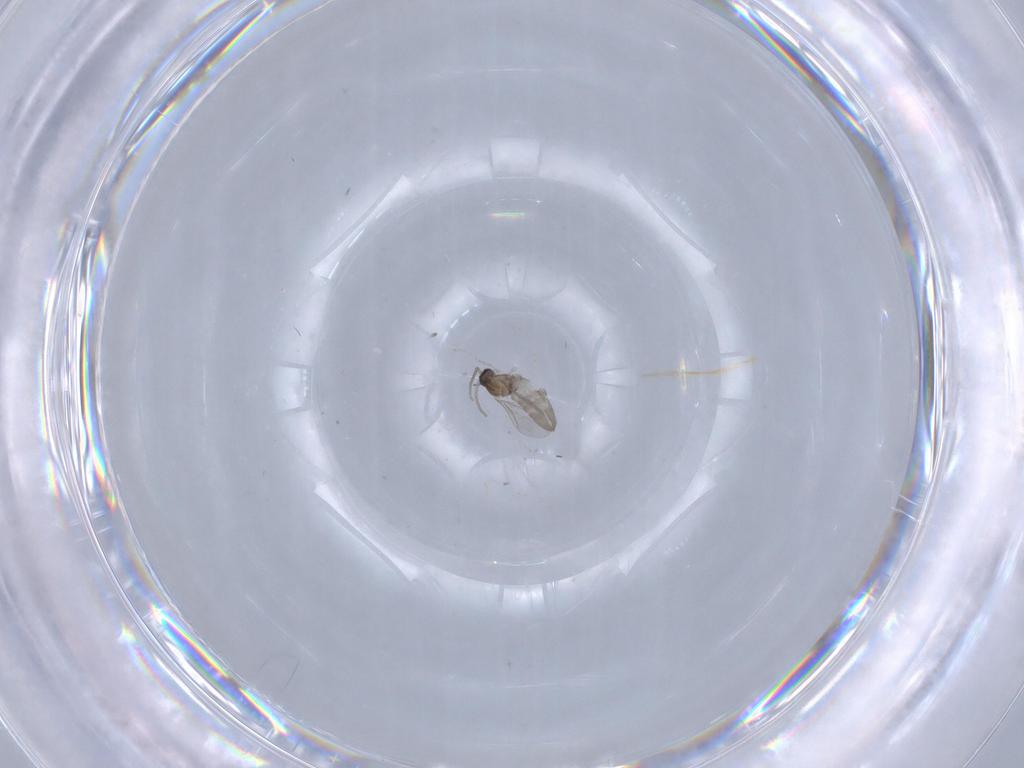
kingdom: Animalia
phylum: Arthropoda
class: Insecta
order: Diptera
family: Cecidomyiidae
